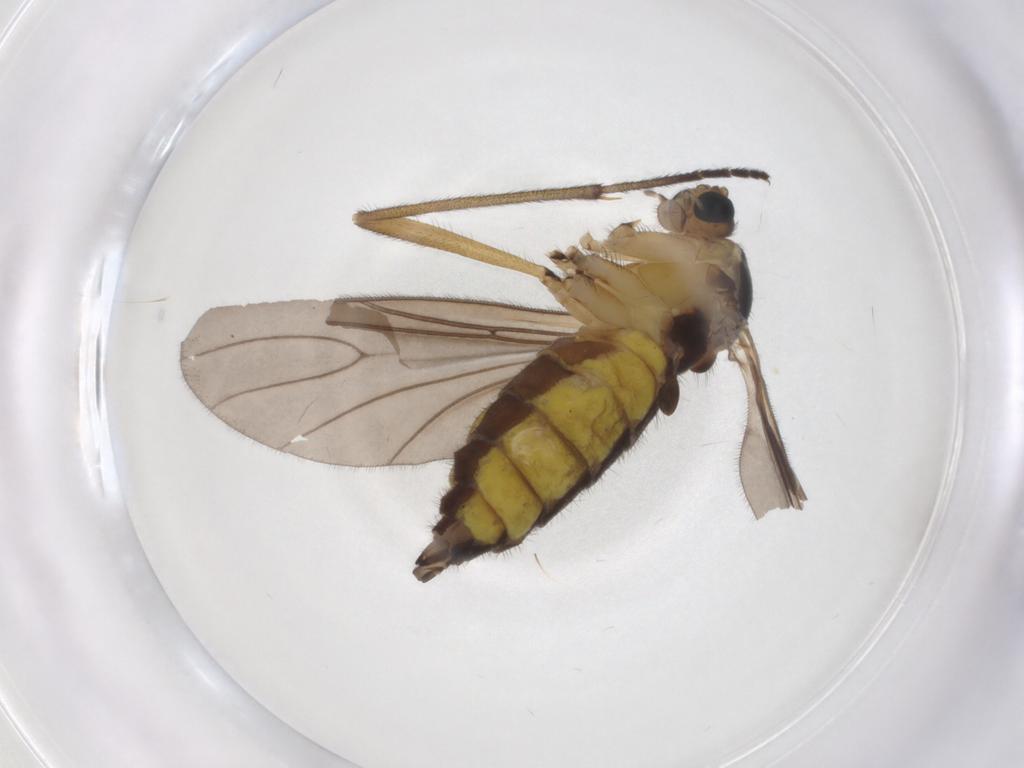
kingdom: Animalia
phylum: Arthropoda
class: Insecta
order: Diptera
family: Sciaridae
